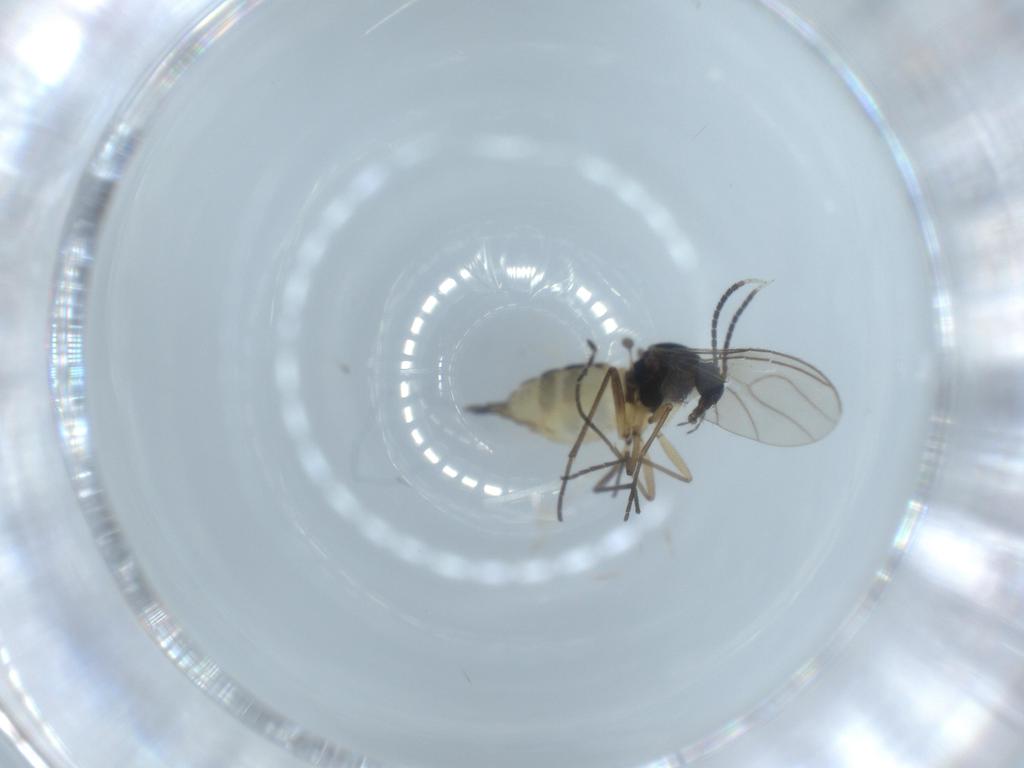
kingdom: Animalia
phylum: Arthropoda
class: Insecta
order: Diptera
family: Sciaridae
